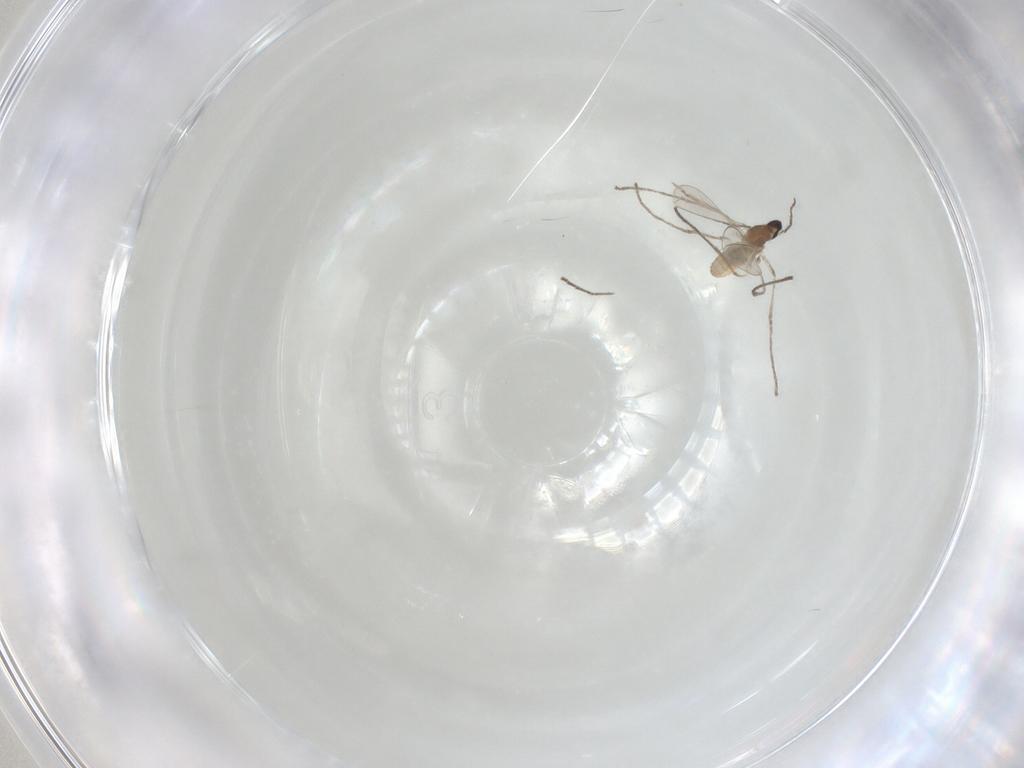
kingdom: Animalia
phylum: Arthropoda
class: Insecta
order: Diptera
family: Cecidomyiidae
